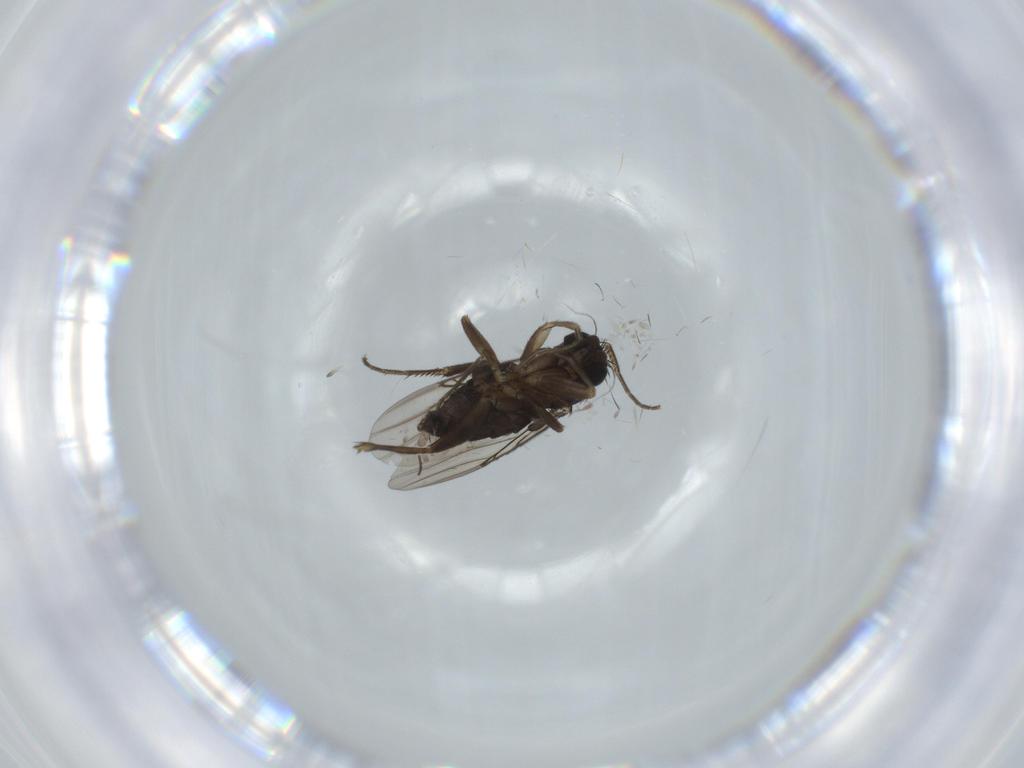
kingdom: Animalia
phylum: Arthropoda
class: Insecta
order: Diptera
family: Phoridae
